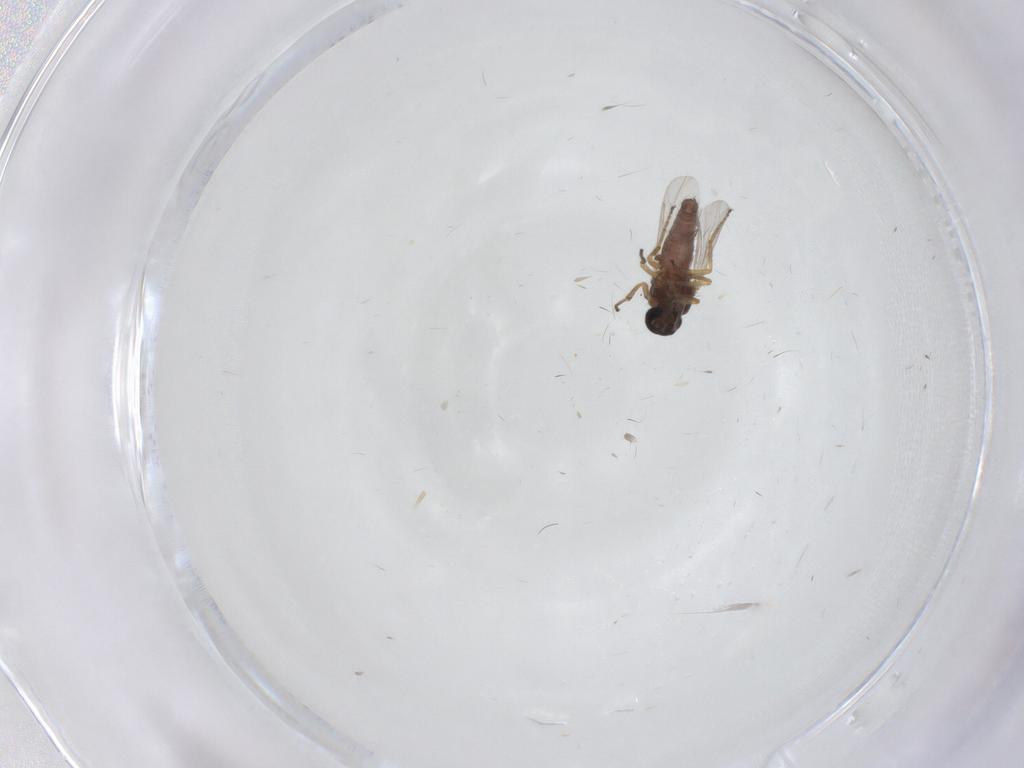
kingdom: Animalia
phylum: Arthropoda
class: Insecta
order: Diptera
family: Ceratopogonidae
